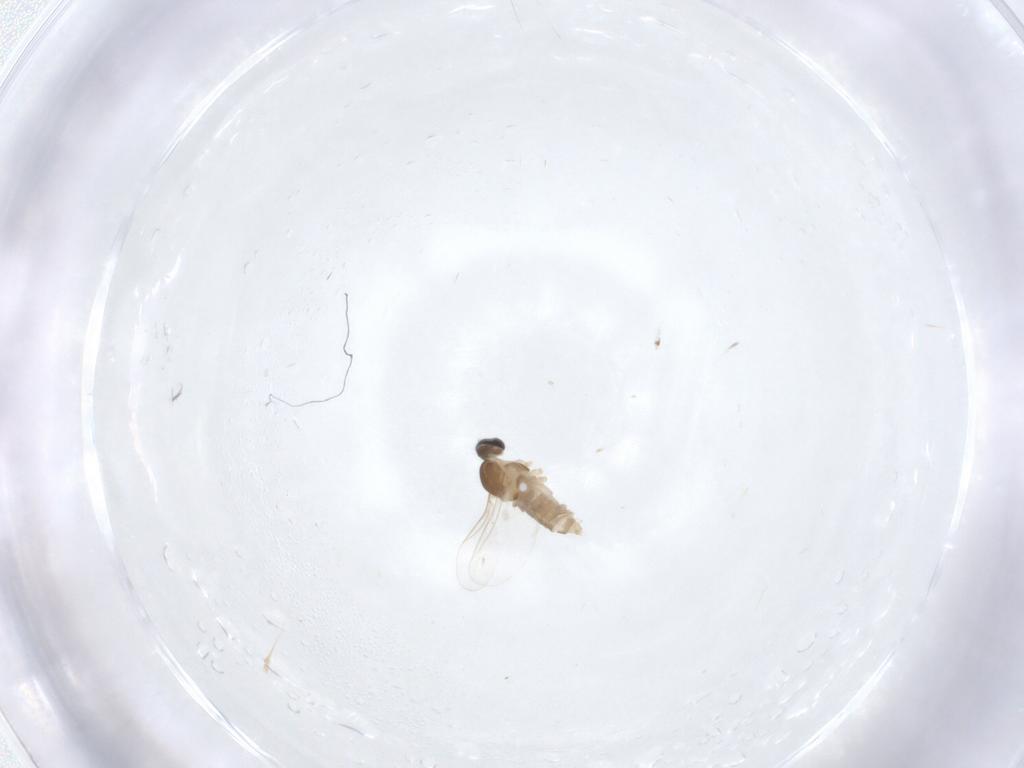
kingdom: Animalia
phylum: Arthropoda
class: Insecta
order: Diptera
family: Cecidomyiidae
